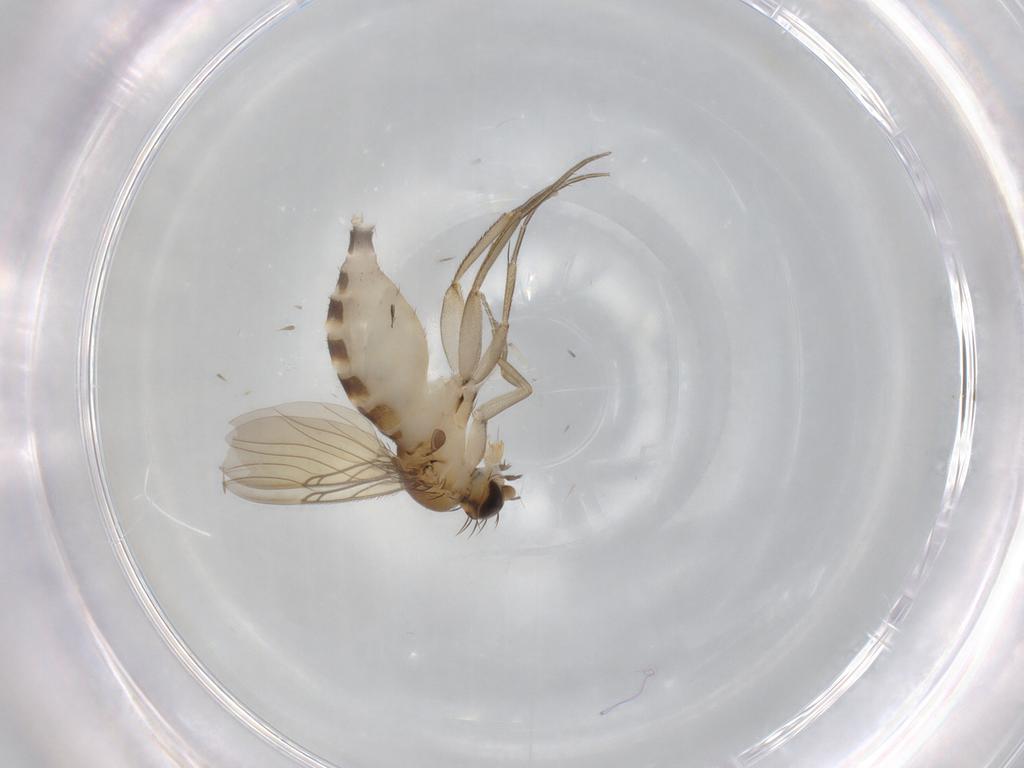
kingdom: Animalia
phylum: Arthropoda
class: Insecta
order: Diptera
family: Phoridae
